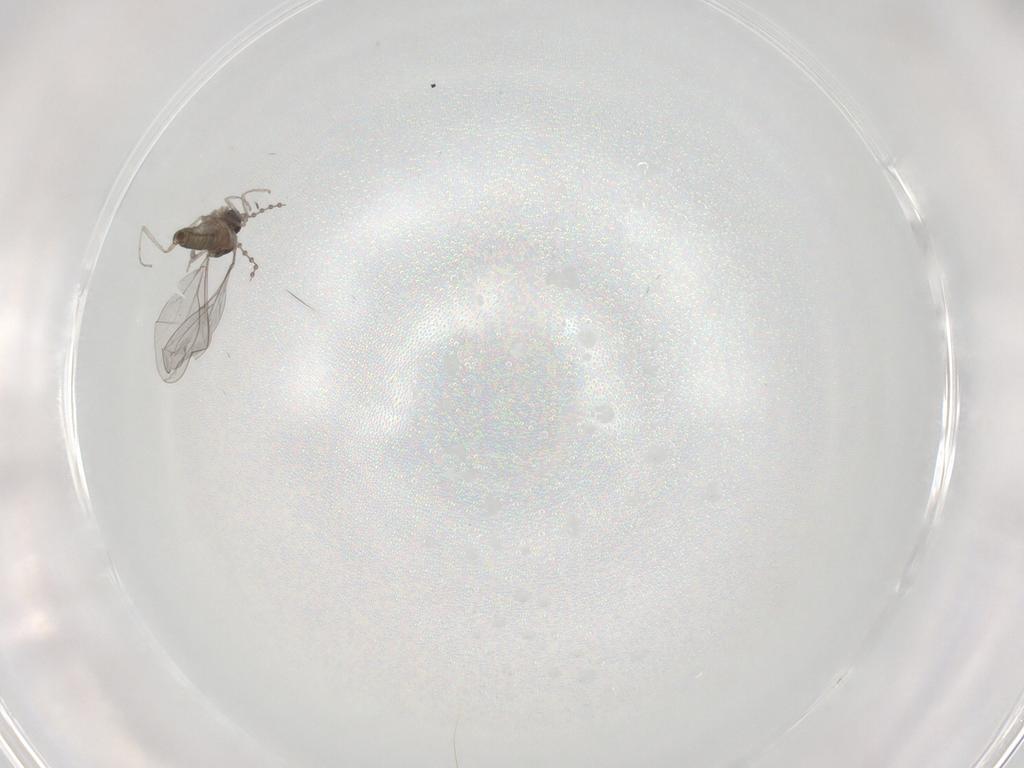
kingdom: Animalia
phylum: Arthropoda
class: Insecta
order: Diptera
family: Cecidomyiidae
